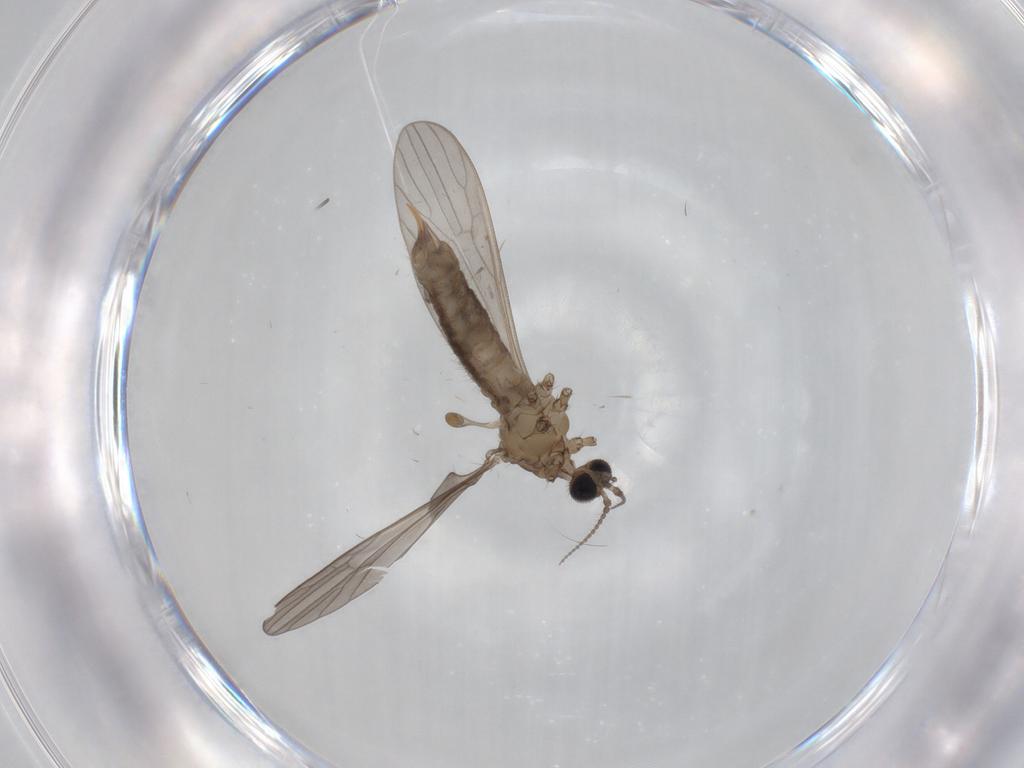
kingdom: Animalia
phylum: Arthropoda
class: Insecta
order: Diptera
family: Limoniidae
